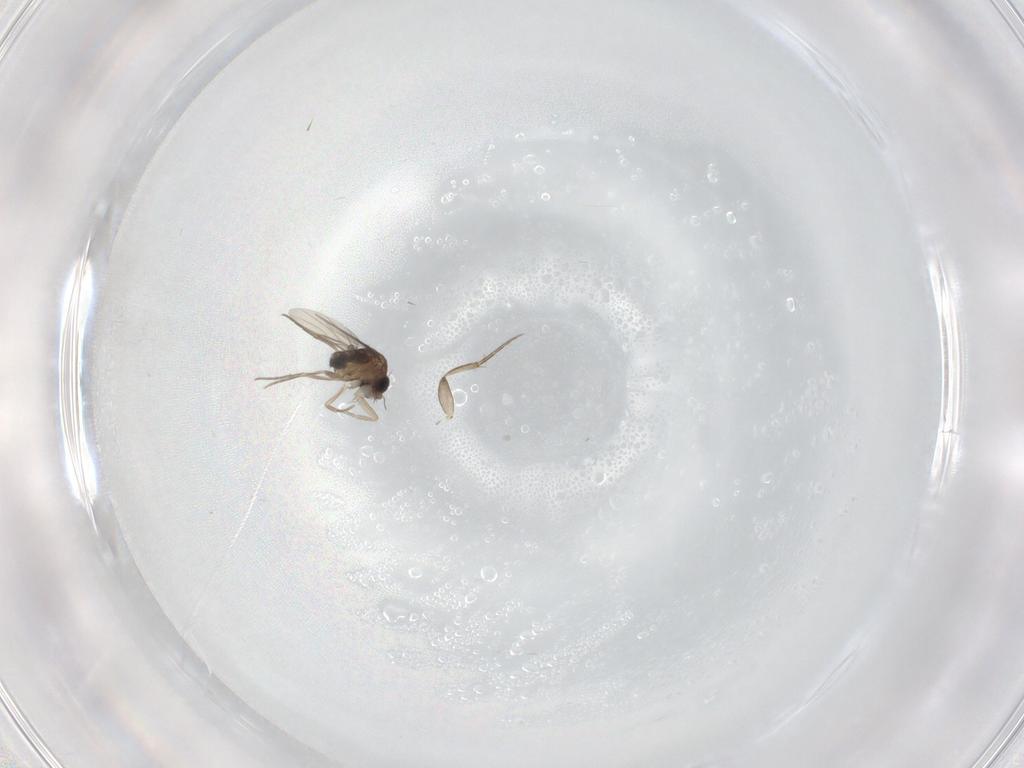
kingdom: Animalia
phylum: Arthropoda
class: Insecta
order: Diptera
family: Phoridae
